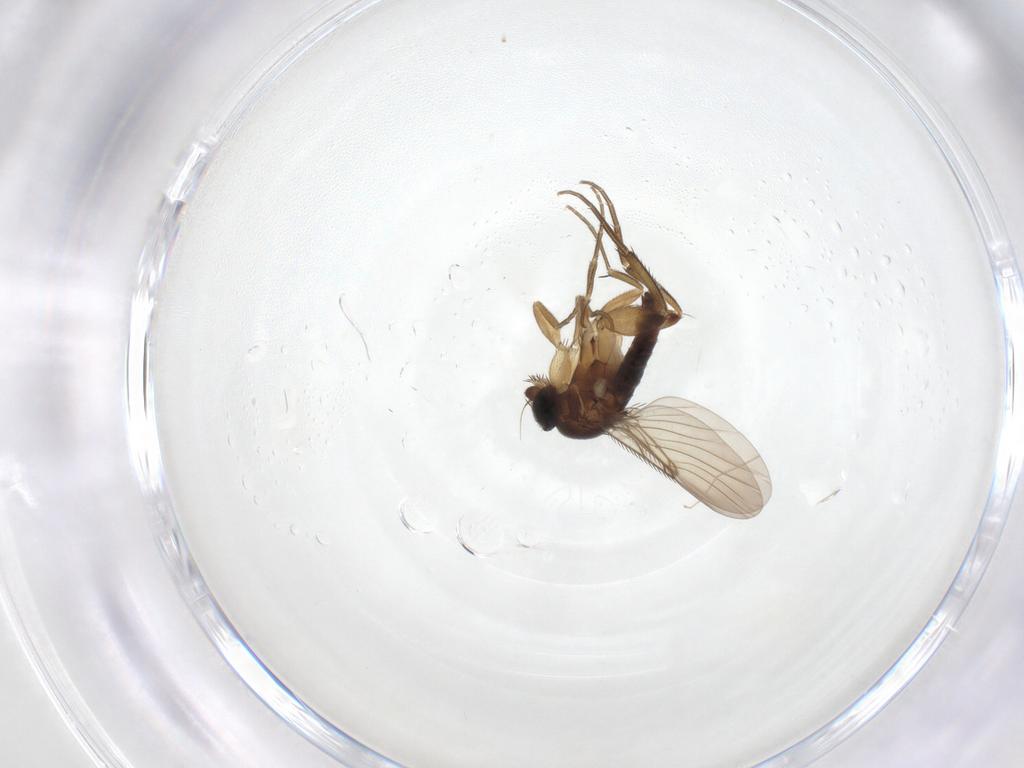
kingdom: Animalia
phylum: Arthropoda
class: Insecta
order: Diptera
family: Phoridae
